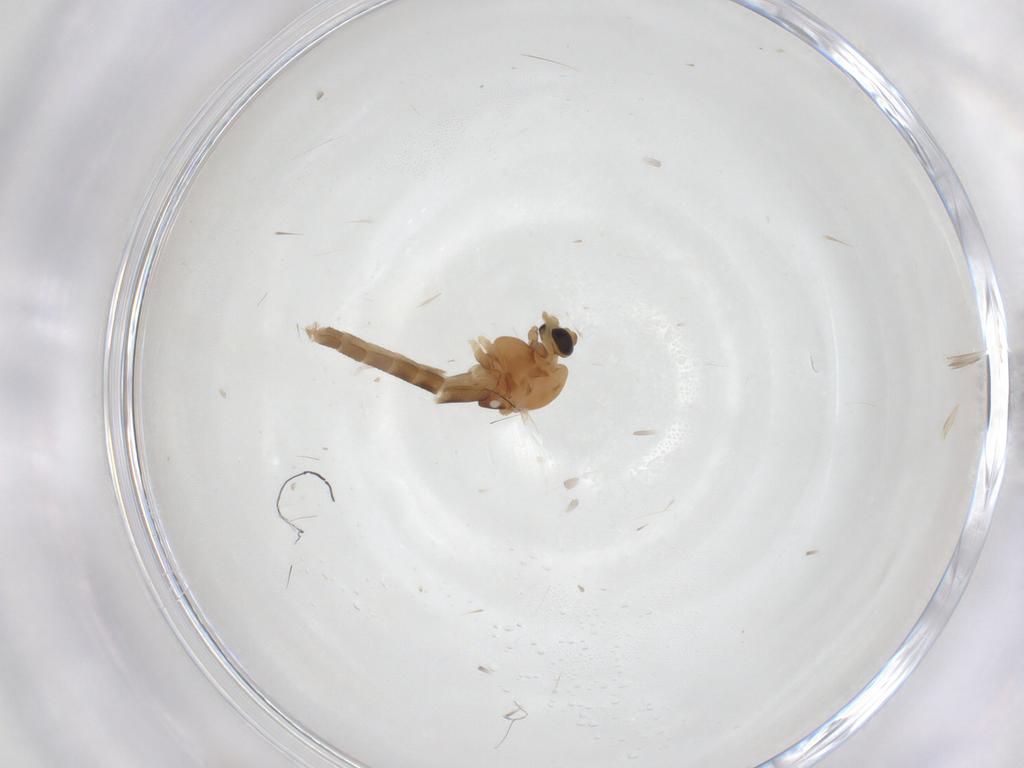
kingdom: Animalia
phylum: Arthropoda
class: Insecta
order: Diptera
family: Chironomidae
